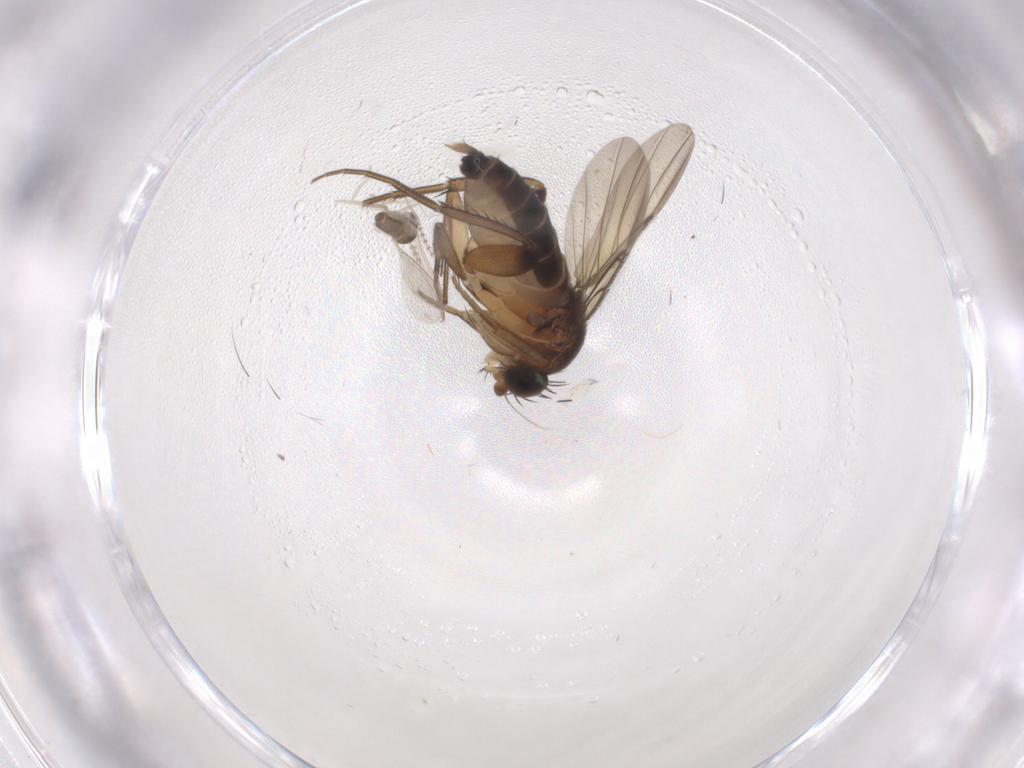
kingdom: Animalia
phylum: Arthropoda
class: Insecta
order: Diptera
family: Phoridae
